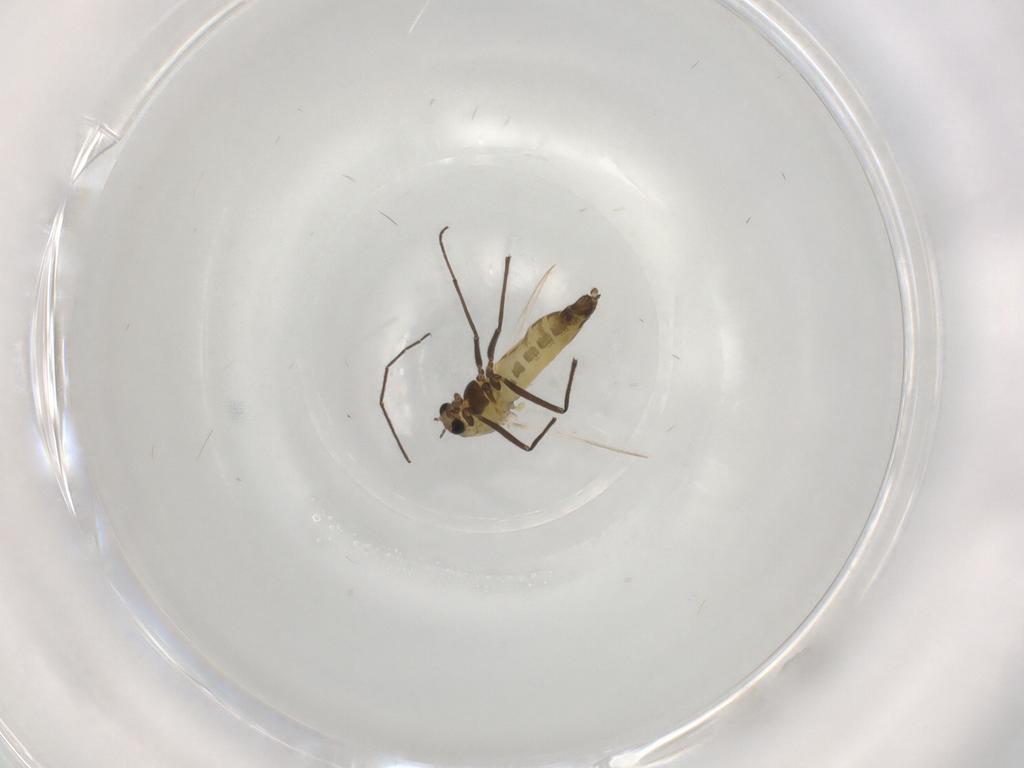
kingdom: Animalia
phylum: Arthropoda
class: Insecta
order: Diptera
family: Chironomidae
